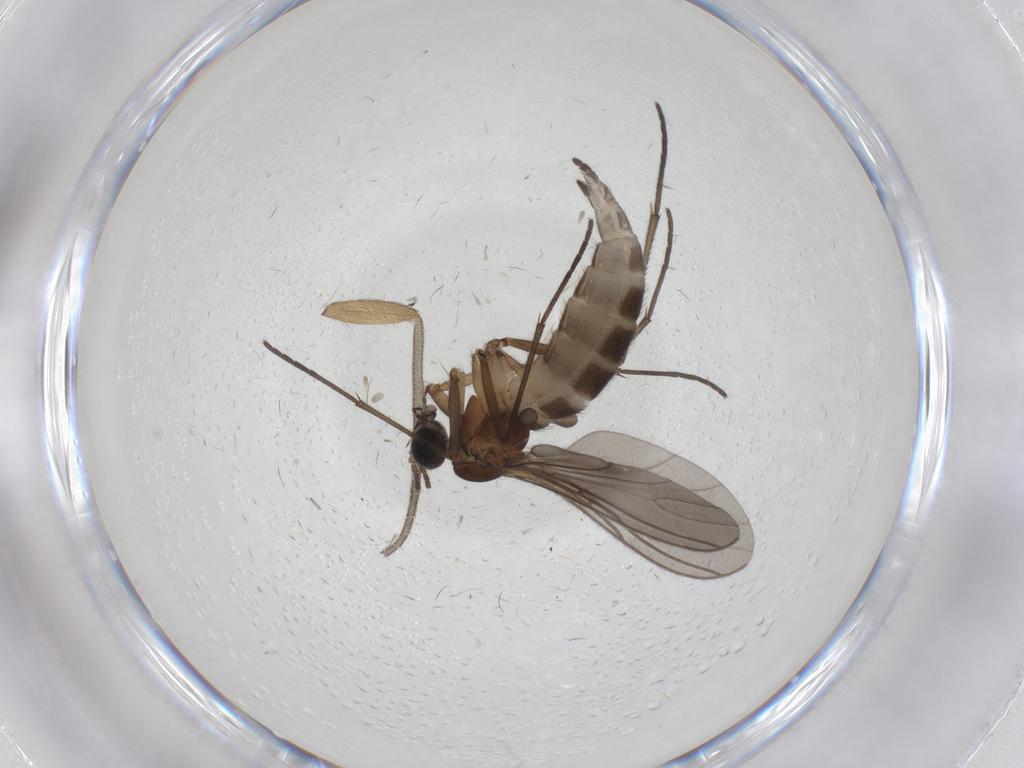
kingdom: Animalia
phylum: Arthropoda
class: Insecta
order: Diptera
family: Sciaridae
